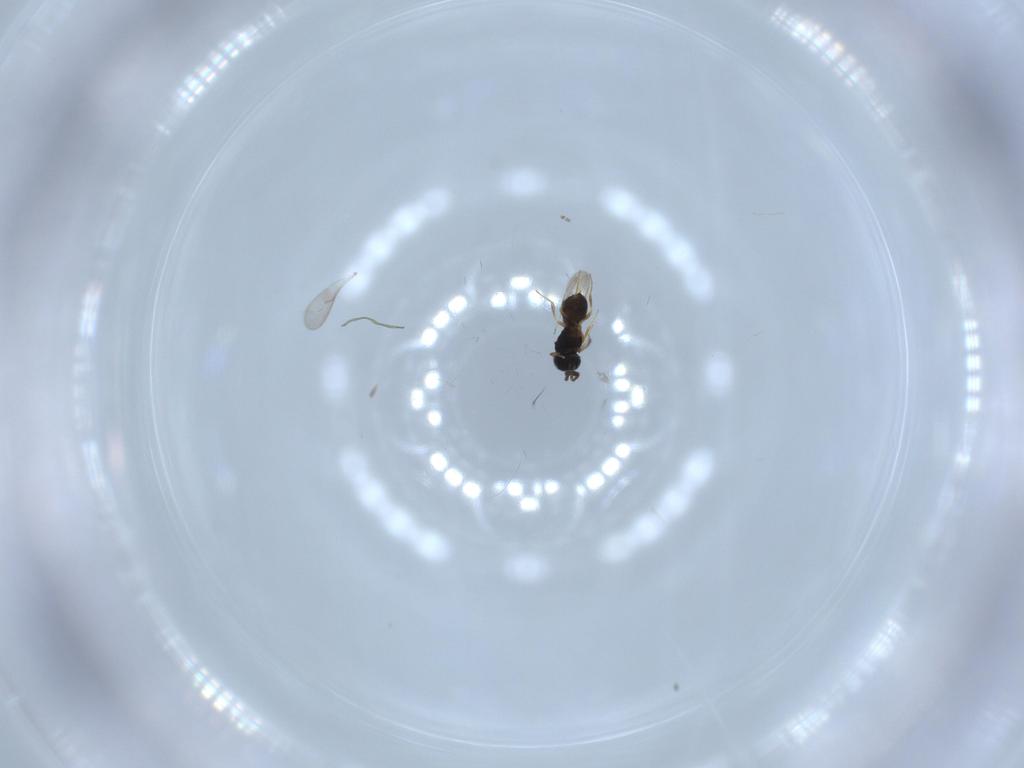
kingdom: Animalia
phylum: Arthropoda
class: Insecta
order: Hymenoptera
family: Scelionidae
